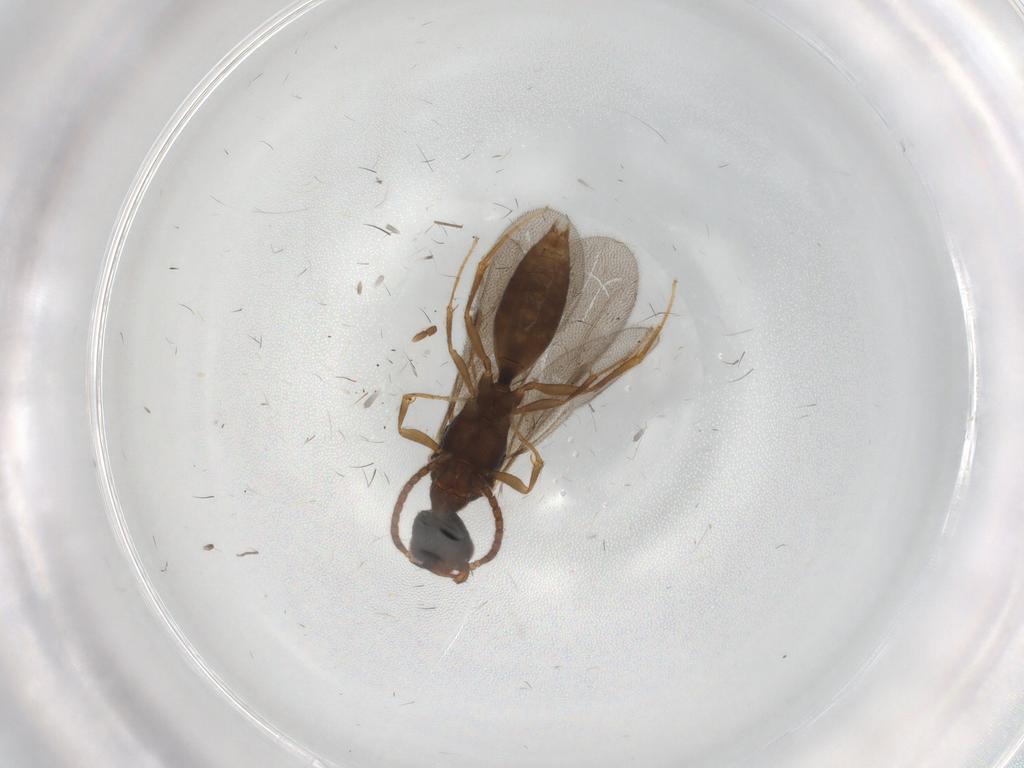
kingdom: Animalia
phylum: Arthropoda
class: Insecta
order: Hymenoptera
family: Bethylidae
